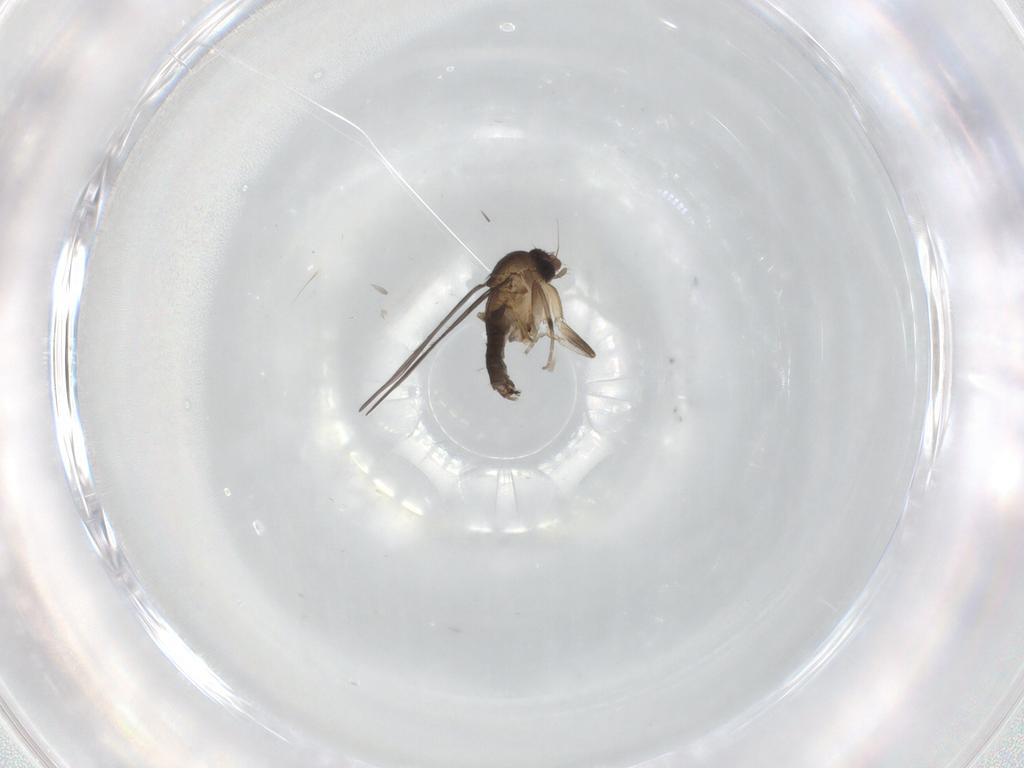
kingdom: Animalia
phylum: Arthropoda
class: Insecta
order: Diptera
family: Phoridae
